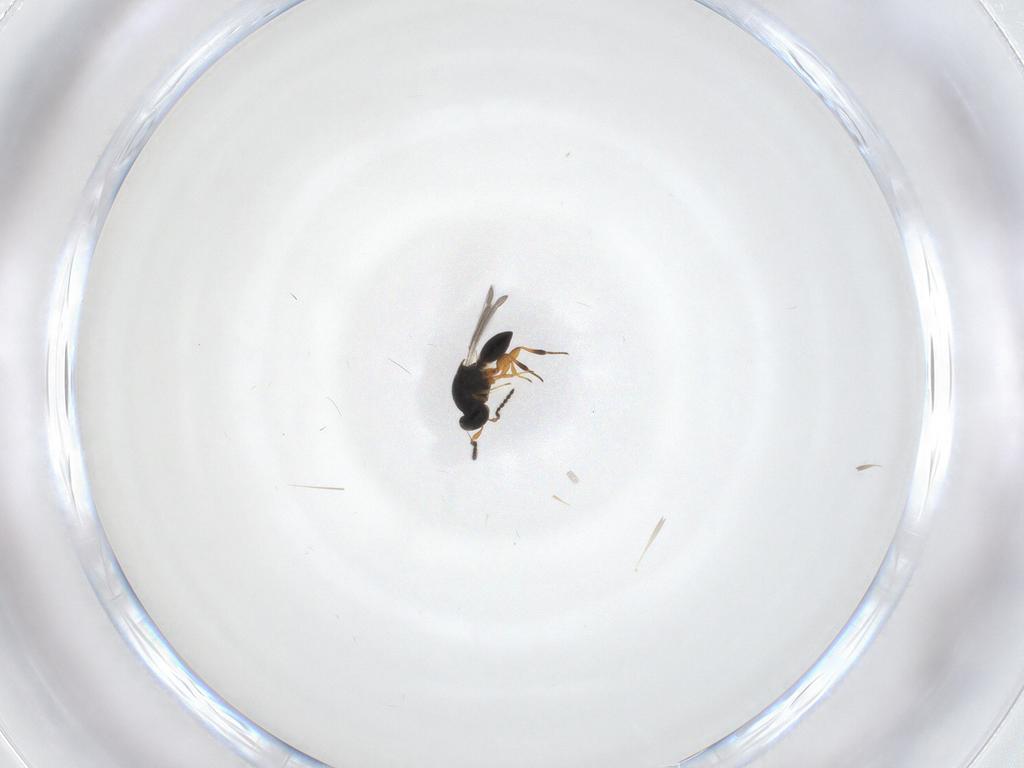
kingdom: Animalia
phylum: Arthropoda
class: Insecta
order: Hymenoptera
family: Platygastridae
